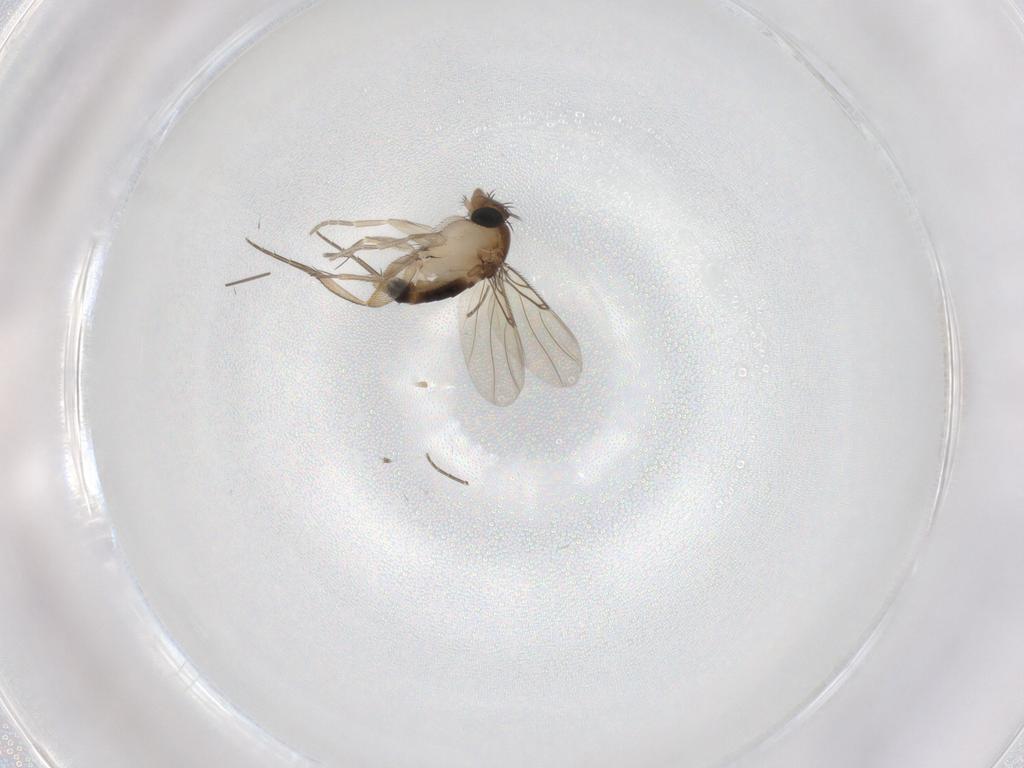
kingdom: Animalia
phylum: Arthropoda
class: Insecta
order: Diptera
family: Phoridae
